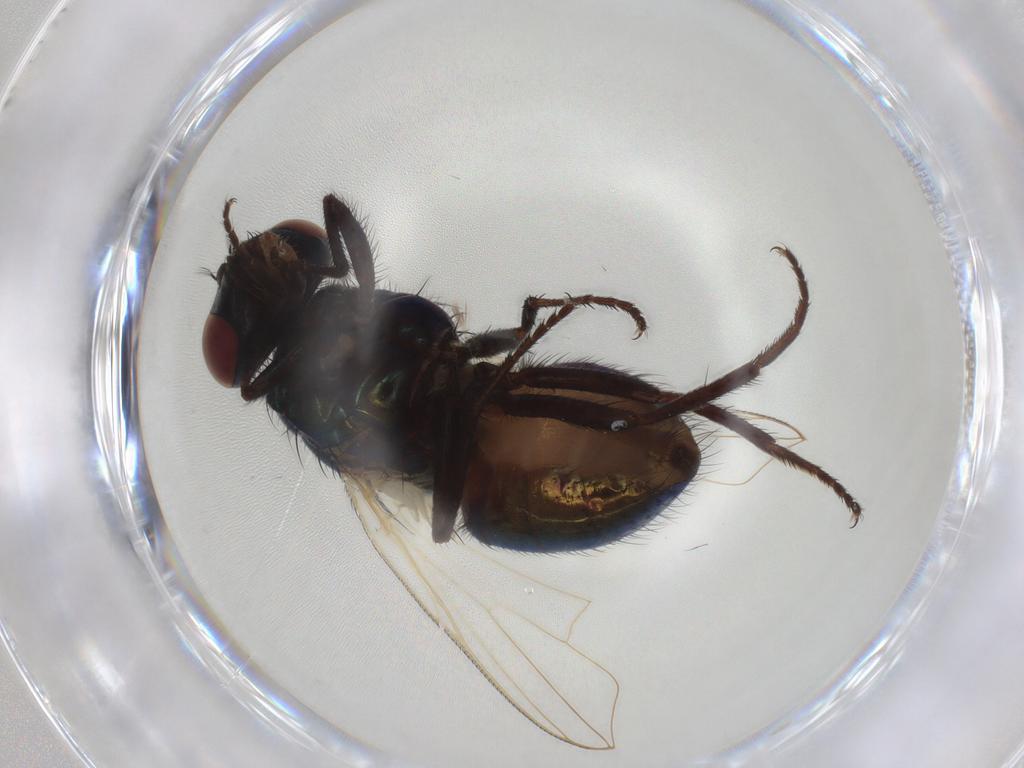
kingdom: Animalia
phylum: Arthropoda
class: Insecta
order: Diptera
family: Muscidae
